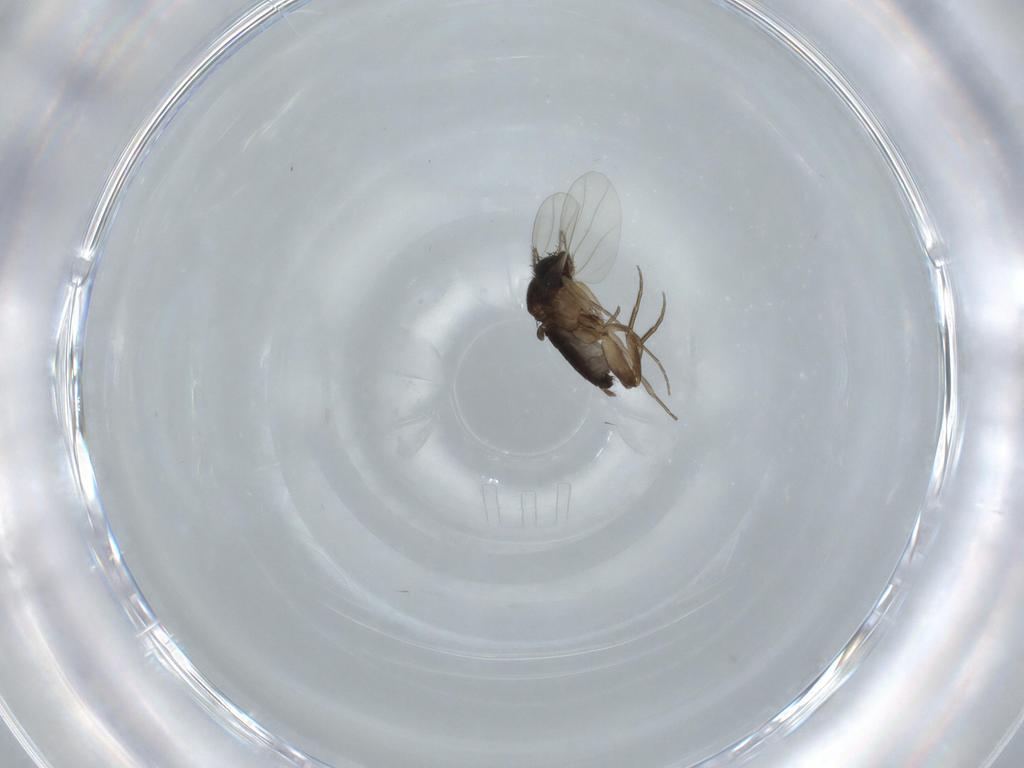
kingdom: Animalia
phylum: Arthropoda
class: Insecta
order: Diptera
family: Phoridae
